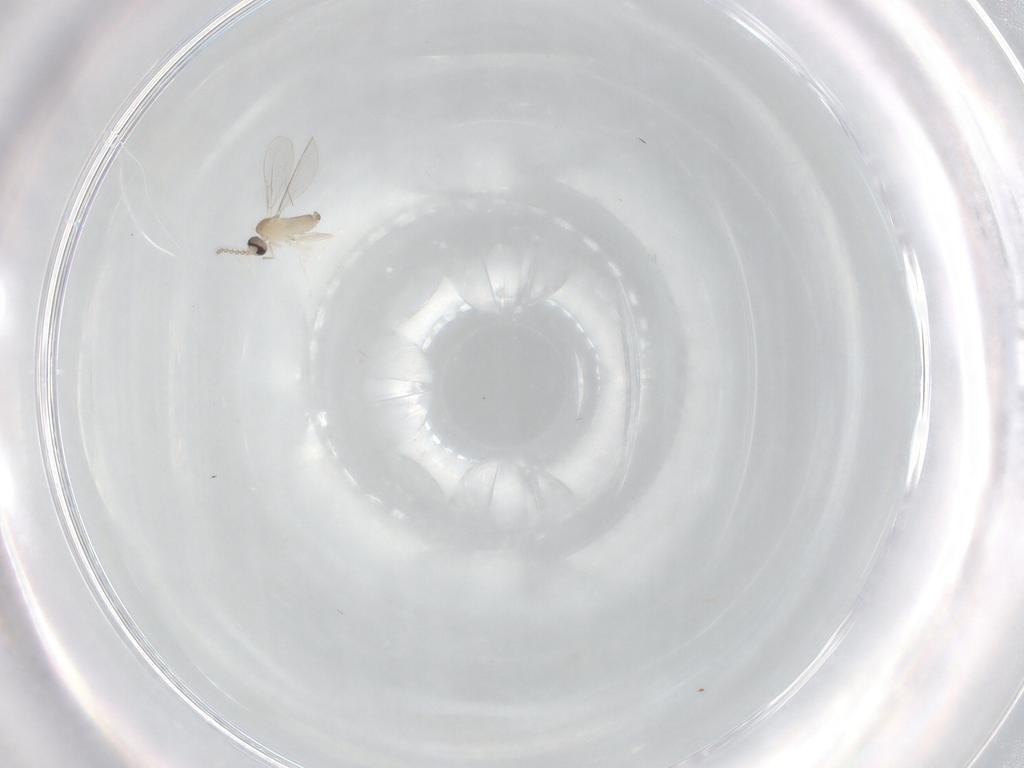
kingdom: Animalia
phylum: Arthropoda
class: Insecta
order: Diptera
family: Cecidomyiidae
